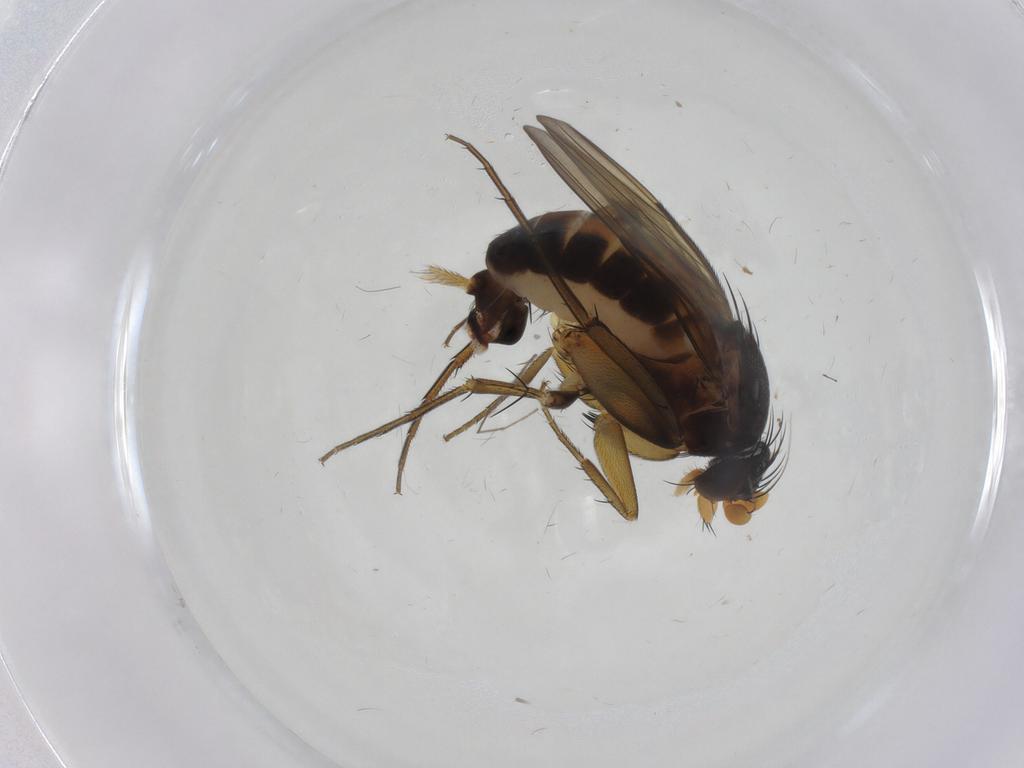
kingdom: Animalia
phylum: Arthropoda
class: Insecta
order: Diptera
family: Phoridae
